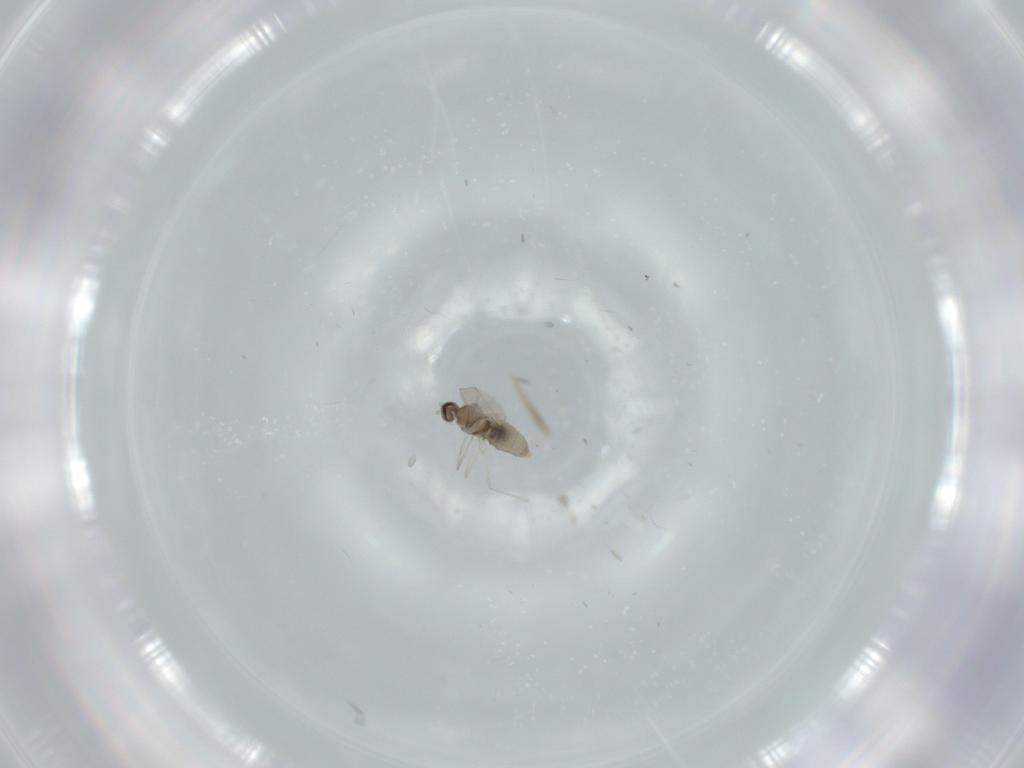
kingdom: Animalia
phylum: Arthropoda
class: Insecta
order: Diptera
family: Cecidomyiidae
